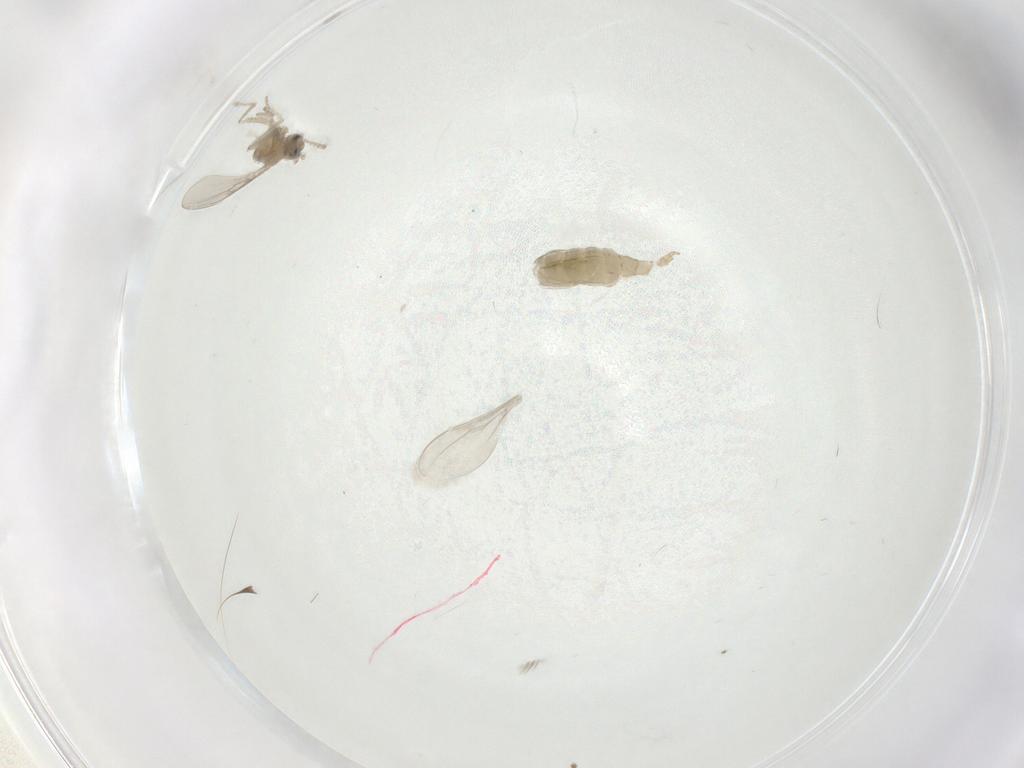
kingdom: Animalia
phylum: Arthropoda
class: Insecta
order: Diptera
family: Cecidomyiidae
